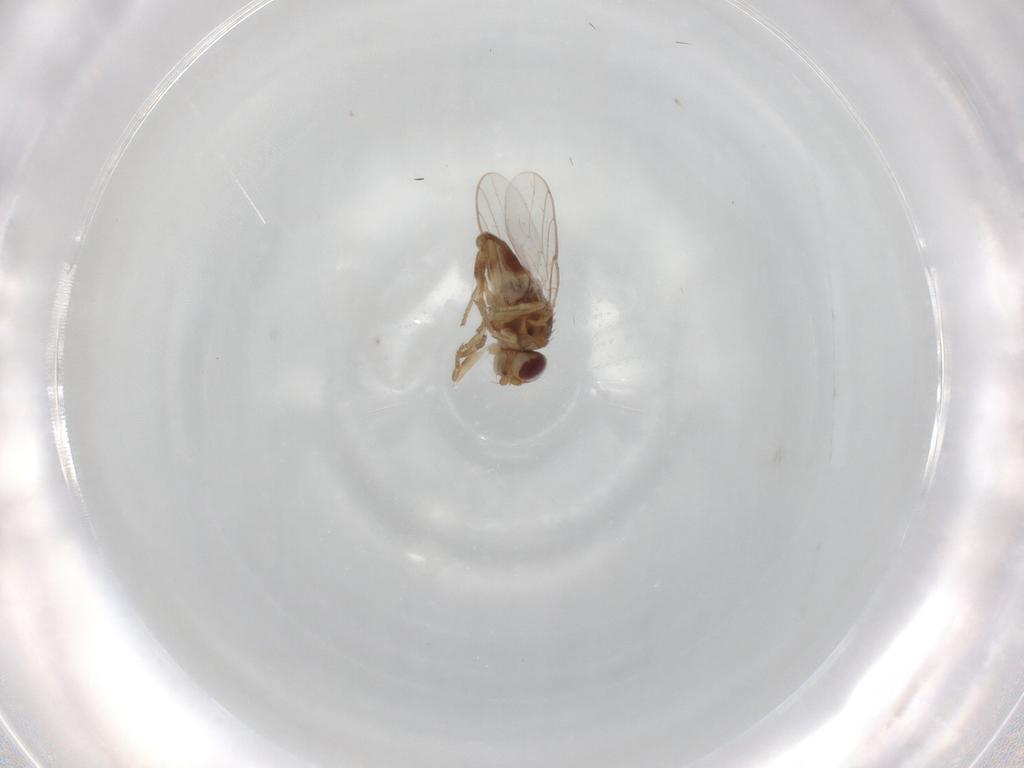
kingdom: Animalia
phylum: Arthropoda
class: Insecta
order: Diptera
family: Chloropidae
